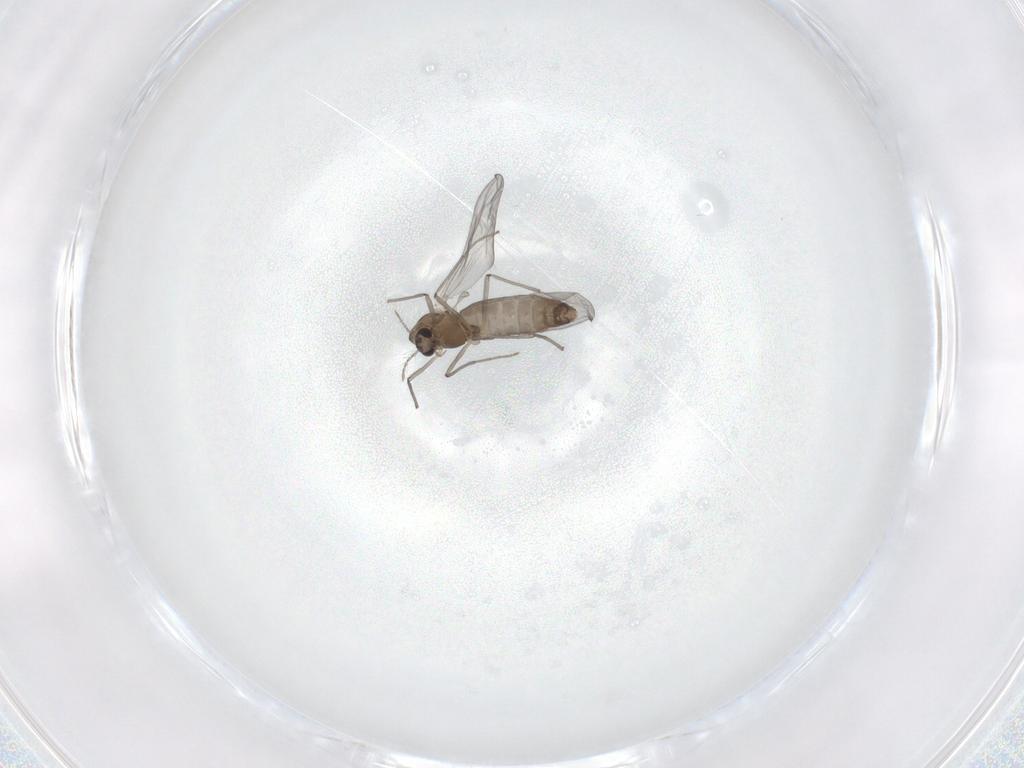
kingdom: Animalia
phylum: Arthropoda
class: Insecta
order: Diptera
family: Chironomidae
